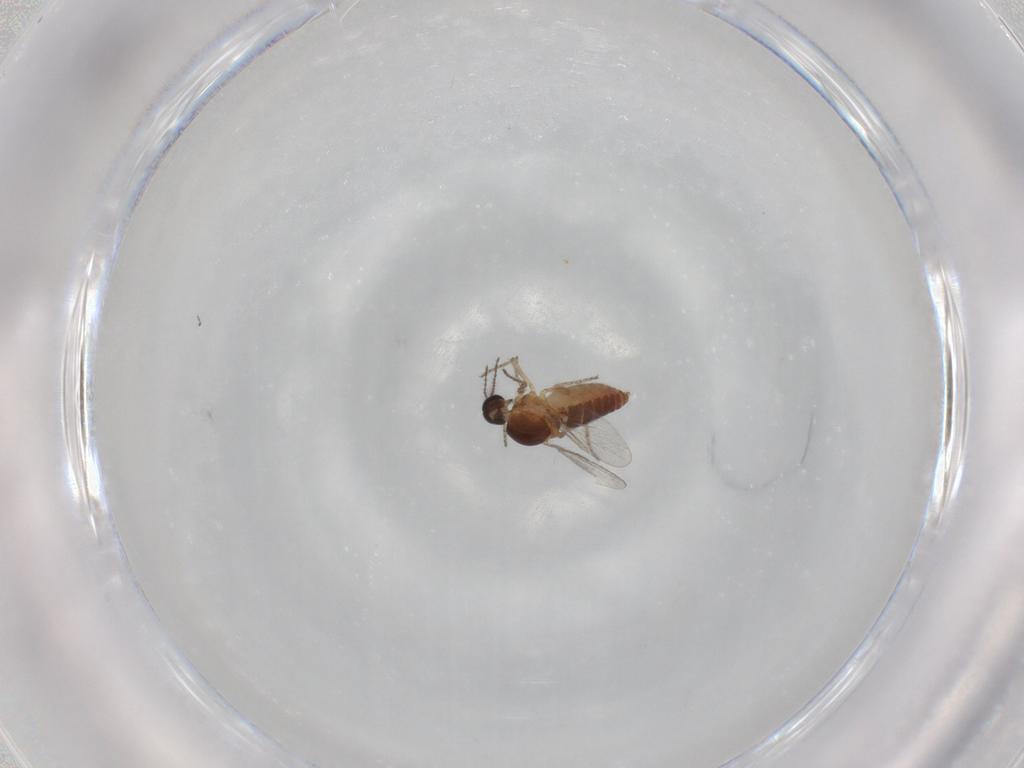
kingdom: Animalia
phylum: Arthropoda
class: Insecta
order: Diptera
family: Ceratopogonidae
